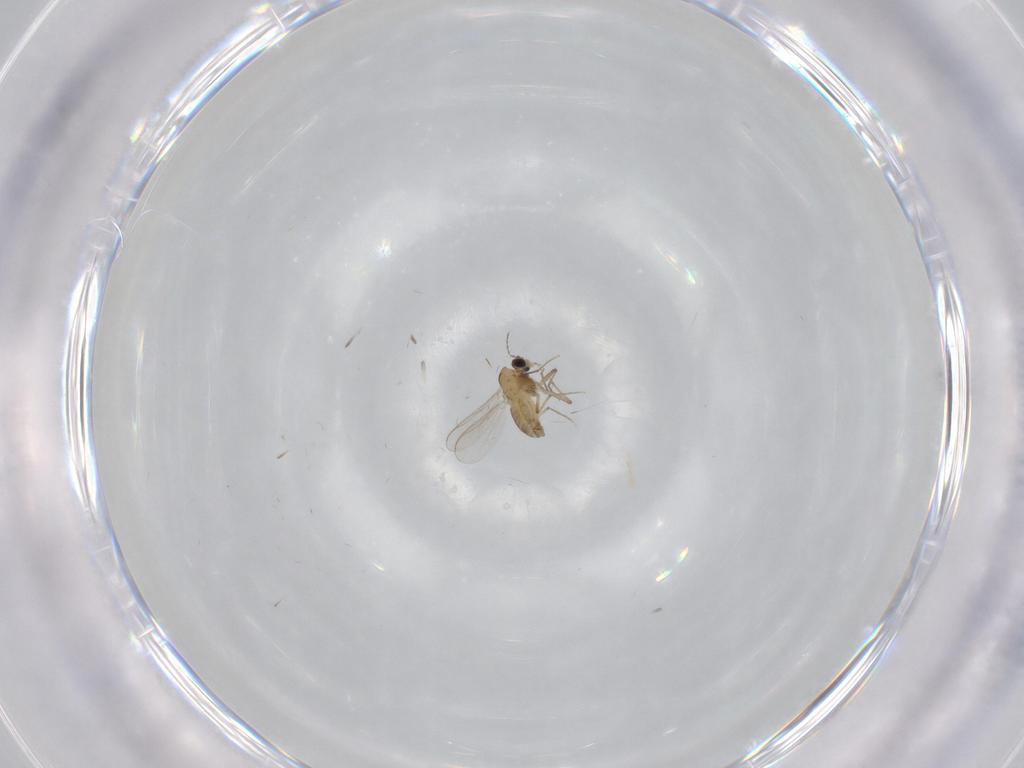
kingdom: Animalia
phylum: Arthropoda
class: Insecta
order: Diptera
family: Chironomidae
